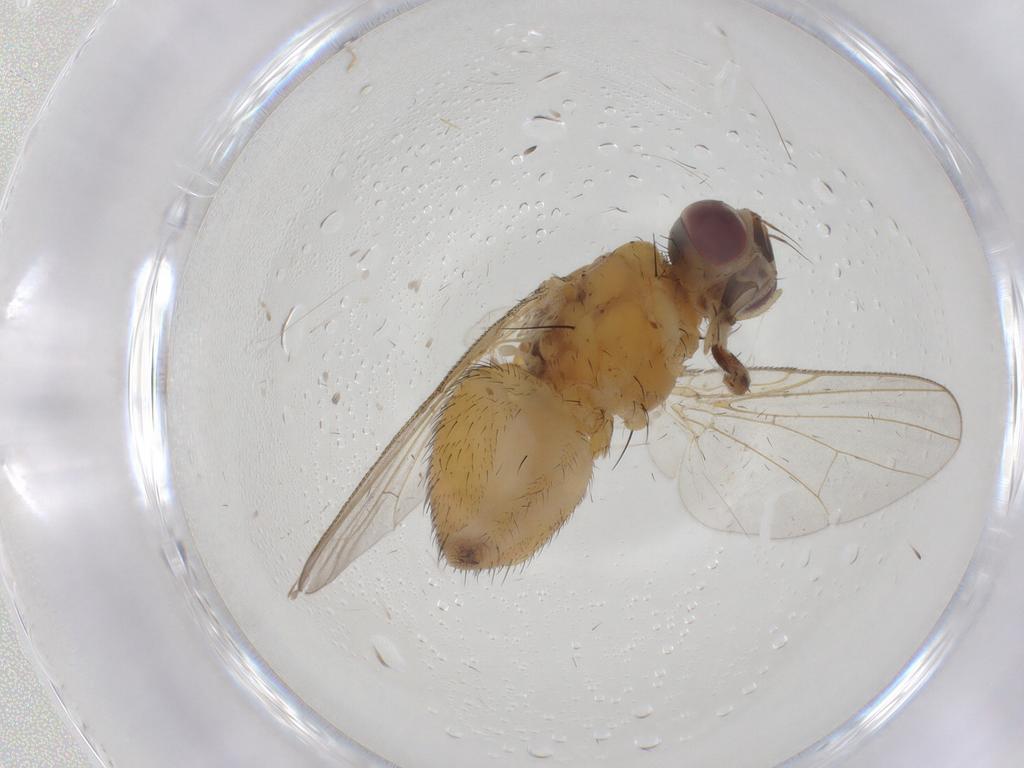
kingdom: Animalia
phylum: Arthropoda
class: Insecta
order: Diptera
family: Muscidae
